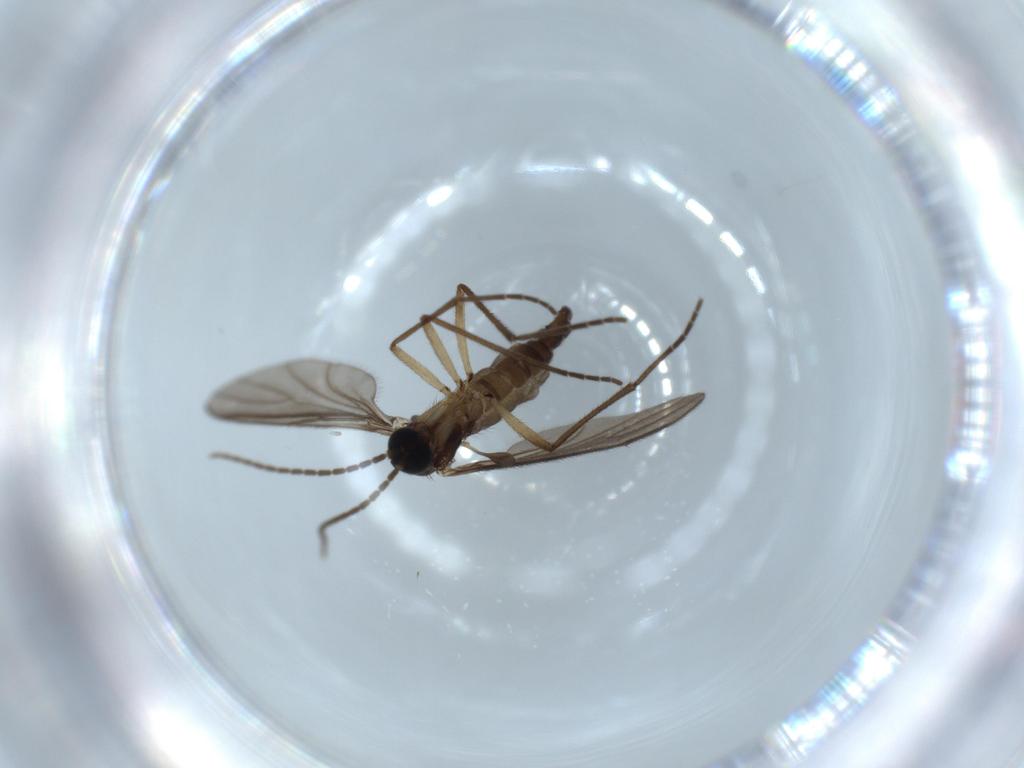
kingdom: Animalia
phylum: Arthropoda
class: Insecta
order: Diptera
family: Sciaridae
